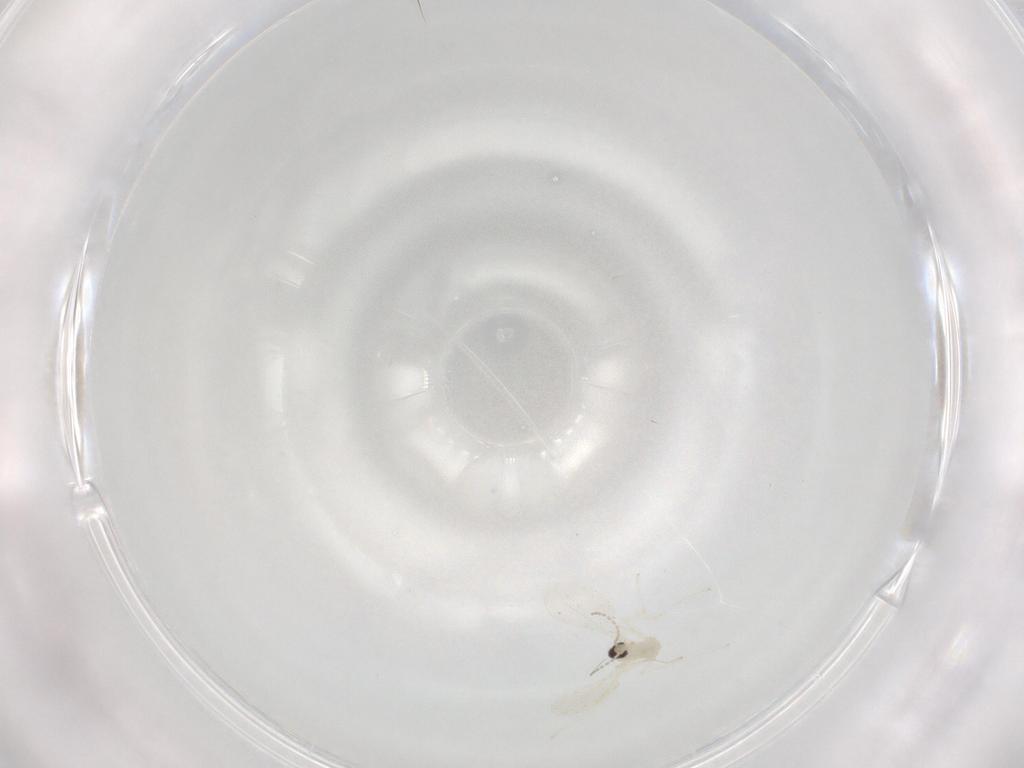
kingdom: Animalia
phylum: Arthropoda
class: Insecta
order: Diptera
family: Cecidomyiidae
